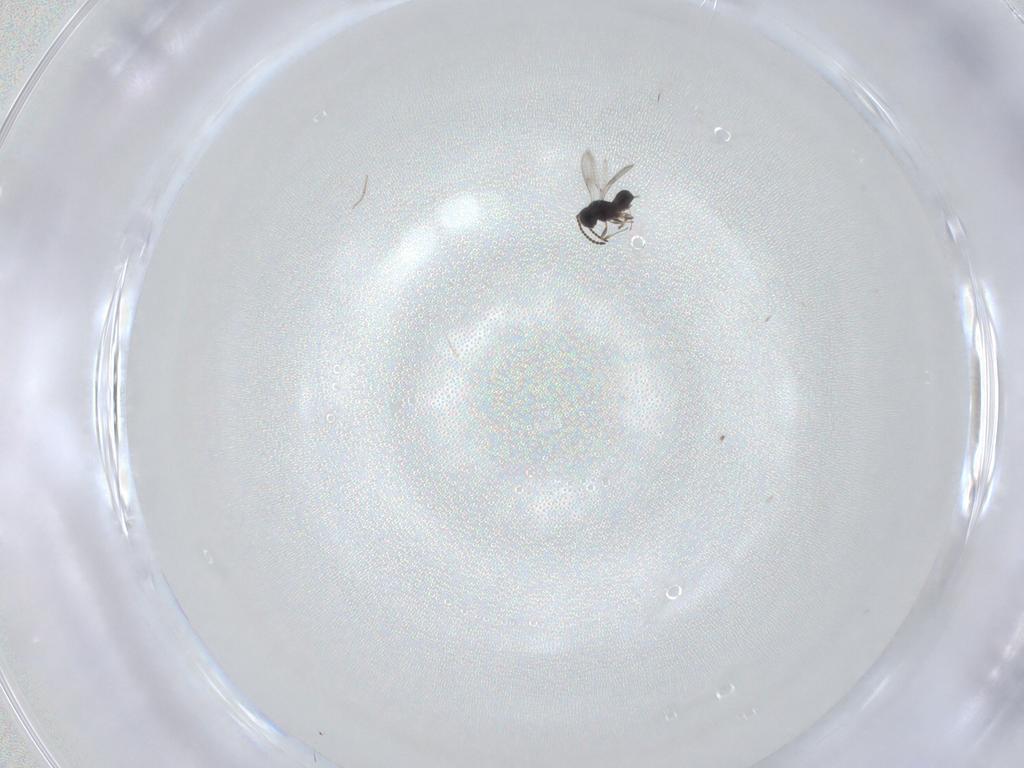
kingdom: Animalia
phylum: Arthropoda
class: Insecta
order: Hymenoptera
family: Scelionidae
